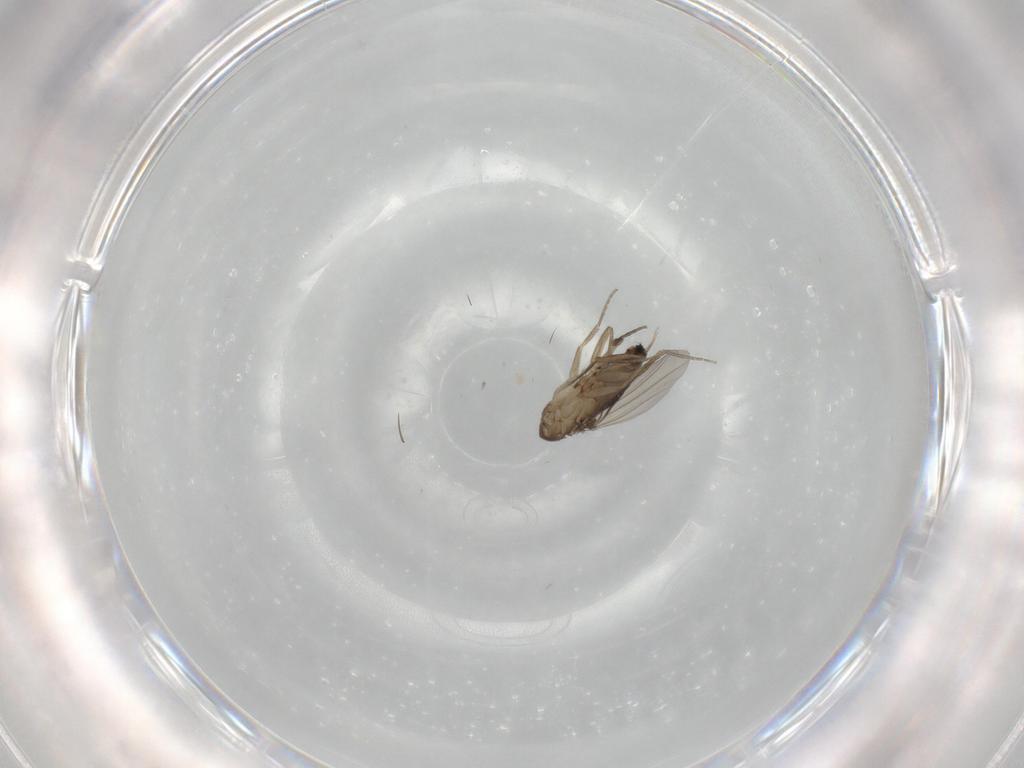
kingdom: Animalia
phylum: Arthropoda
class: Insecta
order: Diptera
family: Phoridae
